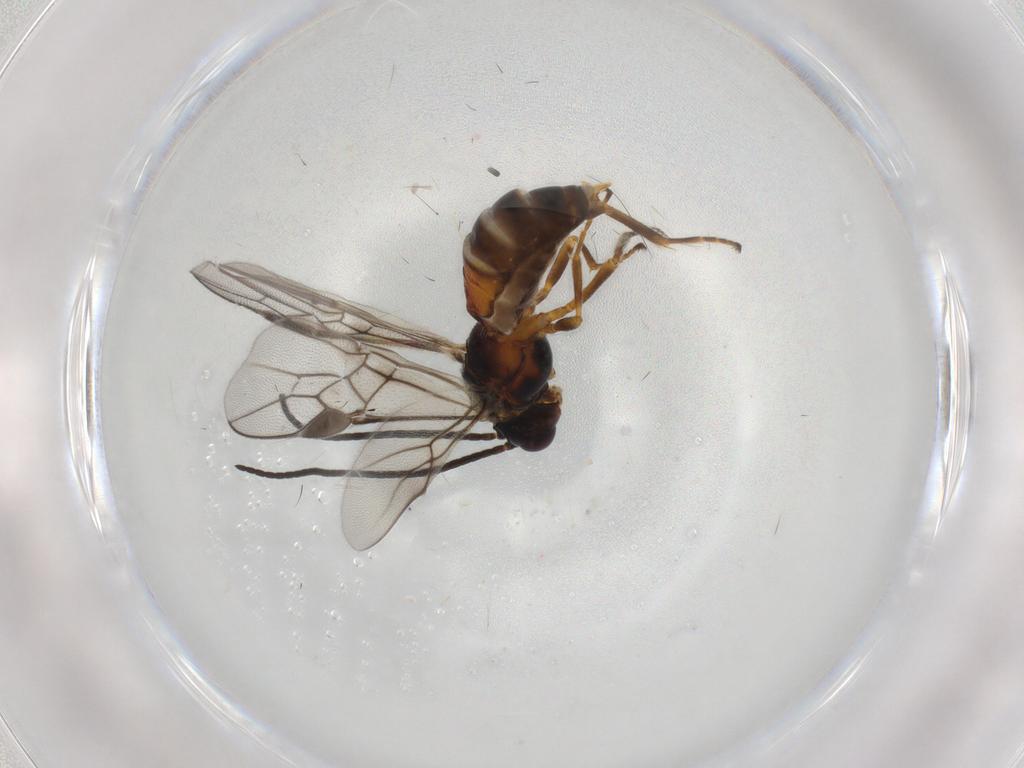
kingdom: Animalia
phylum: Arthropoda
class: Insecta
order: Hymenoptera
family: Braconidae
